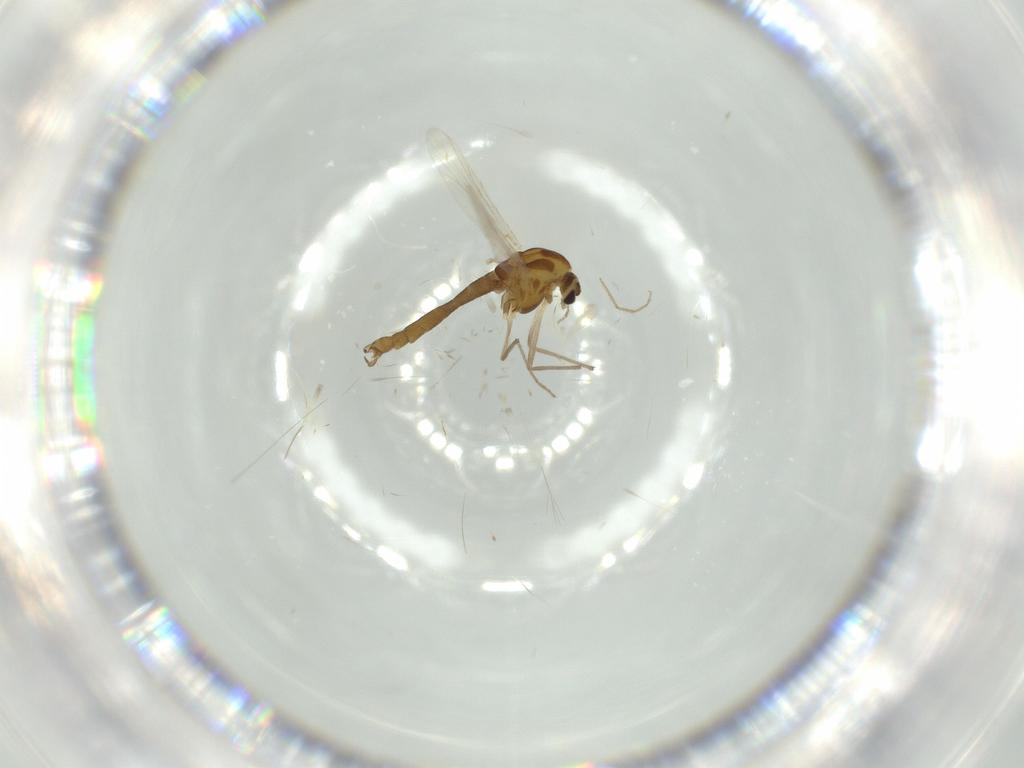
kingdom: Animalia
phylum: Arthropoda
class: Insecta
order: Diptera
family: Chironomidae
